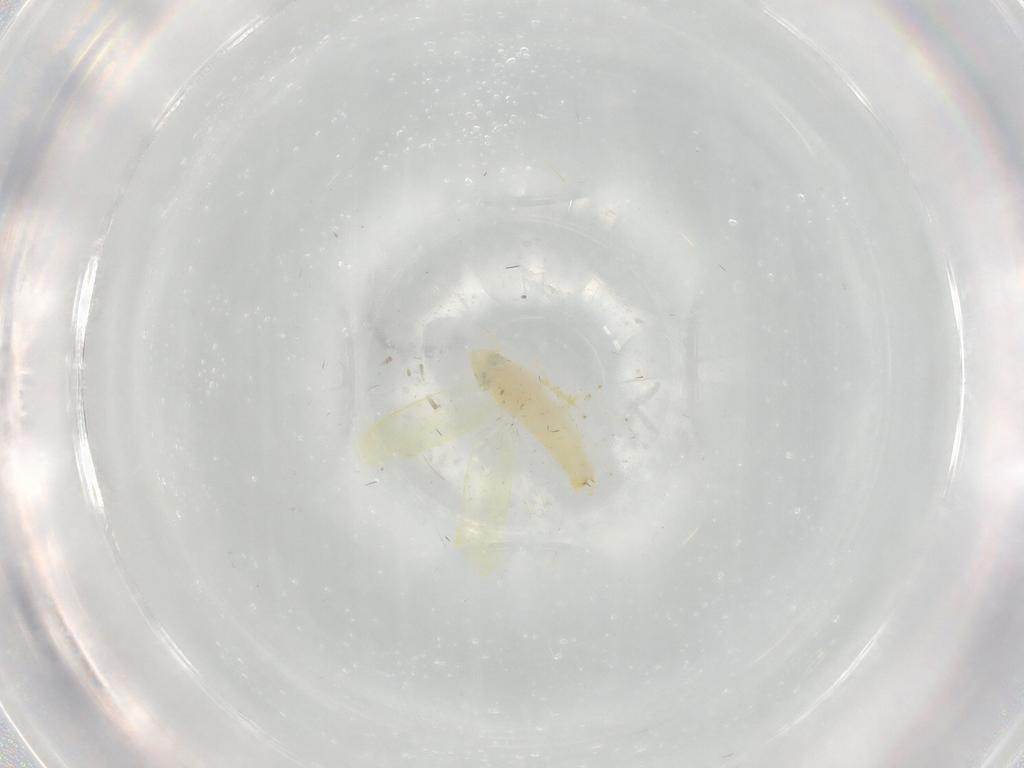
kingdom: Animalia
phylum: Arthropoda
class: Insecta
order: Hemiptera
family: Cicadellidae
